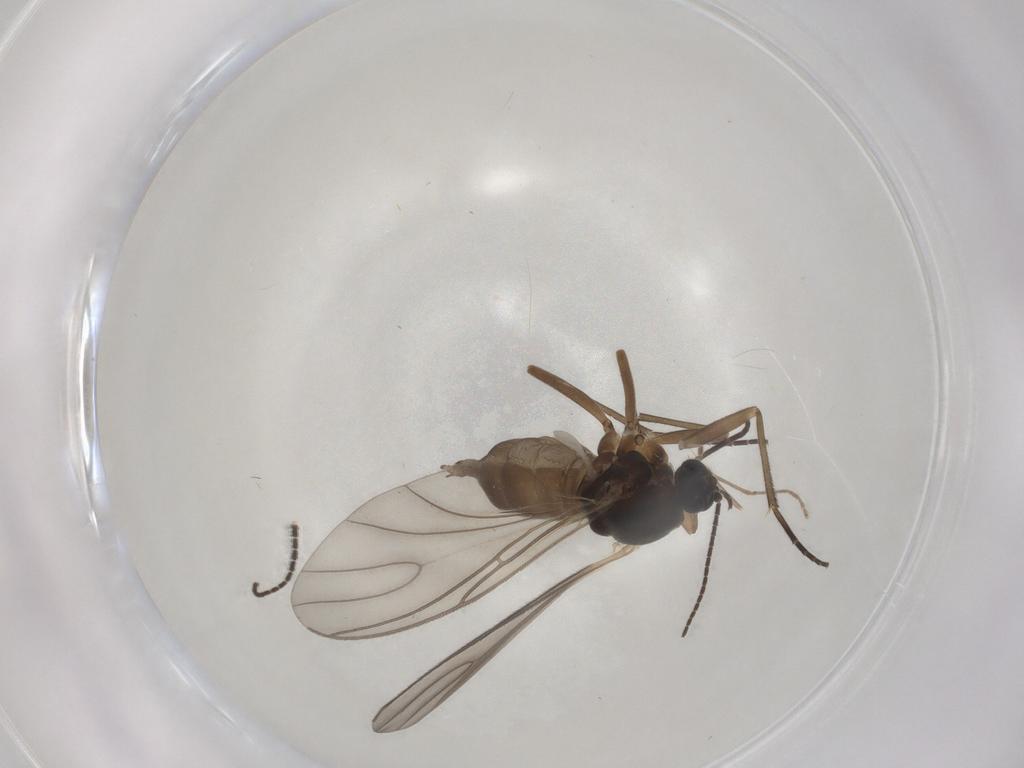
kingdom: Animalia
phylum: Arthropoda
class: Insecta
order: Diptera
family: Sciaridae
